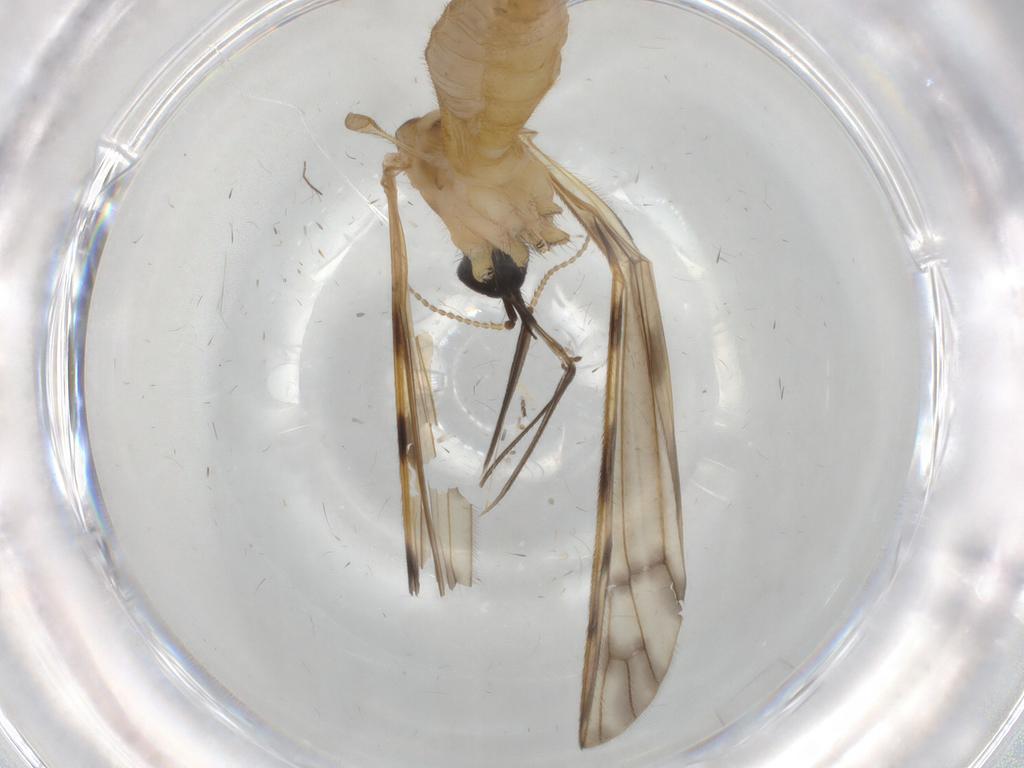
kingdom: Animalia
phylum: Arthropoda
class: Insecta
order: Diptera
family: Limoniidae
